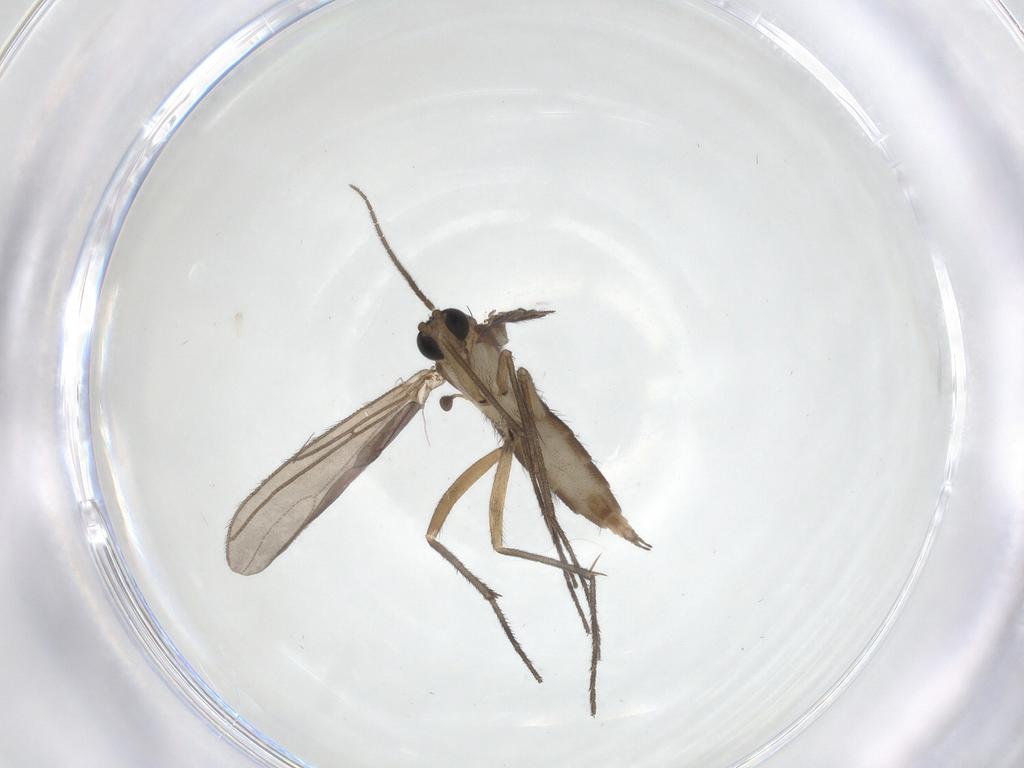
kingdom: Animalia
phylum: Arthropoda
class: Insecta
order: Diptera
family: Sciaridae
